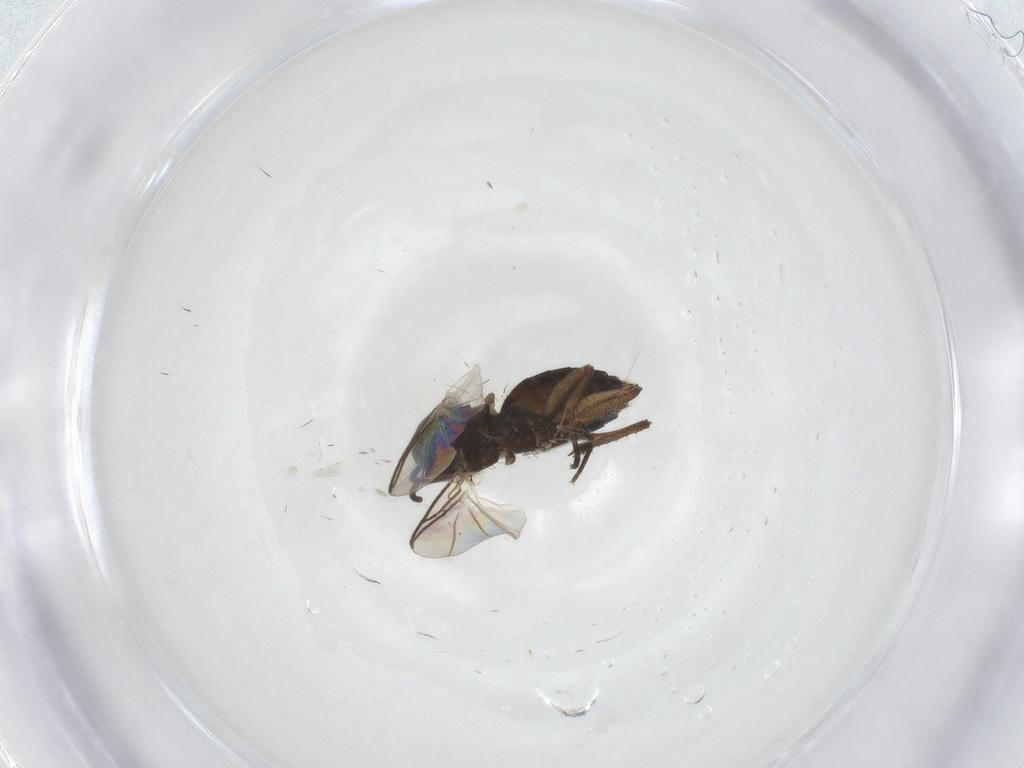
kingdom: Animalia
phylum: Arthropoda
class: Insecta
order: Diptera
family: Mycetophilidae
